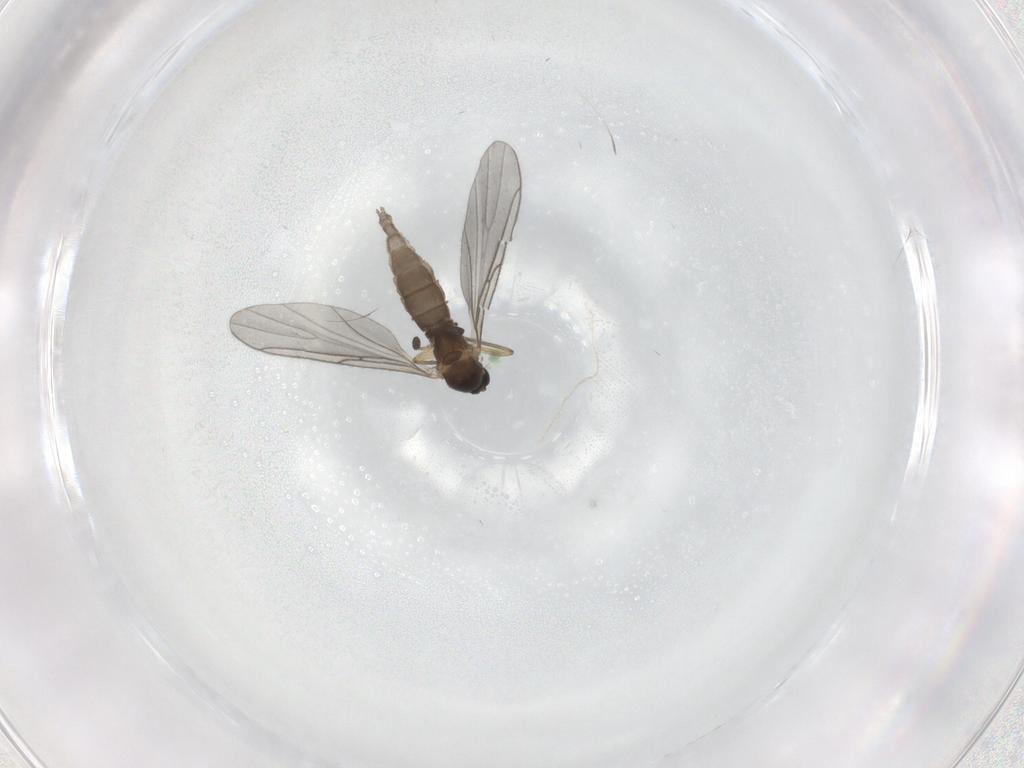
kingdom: Animalia
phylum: Arthropoda
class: Insecta
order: Diptera
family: Sciaridae
